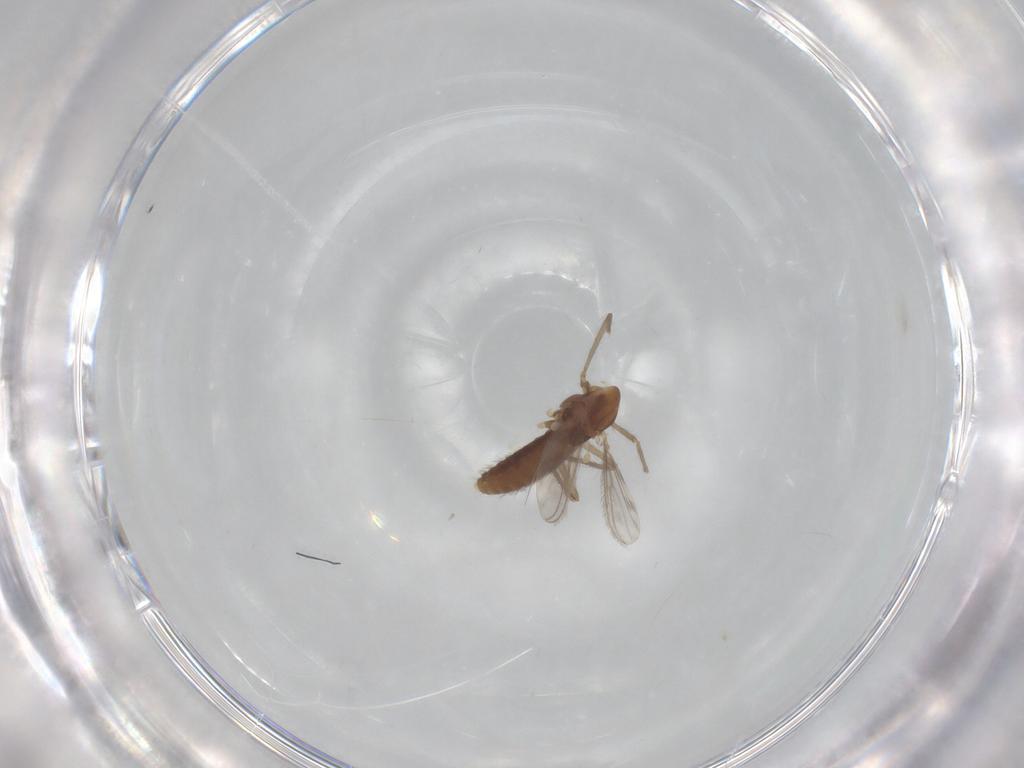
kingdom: Animalia
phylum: Arthropoda
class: Insecta
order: Diptera
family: Chironomidae
